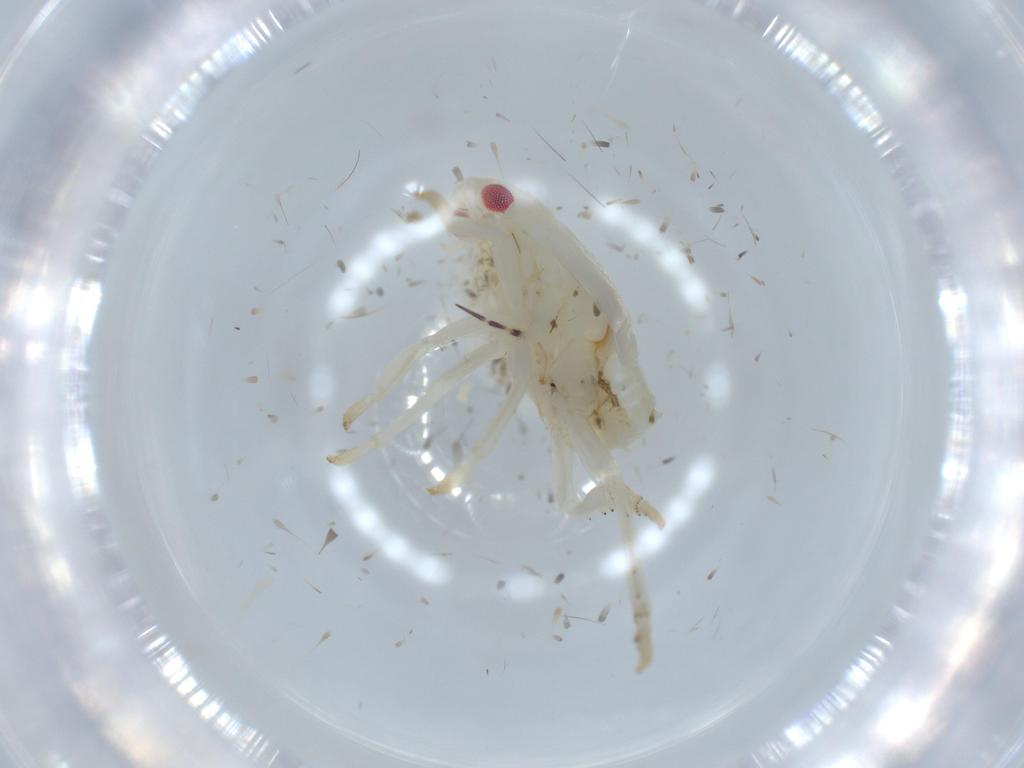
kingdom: Animalia
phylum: Arthropoda
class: Insecta
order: Hemiptera
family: Flatidae
